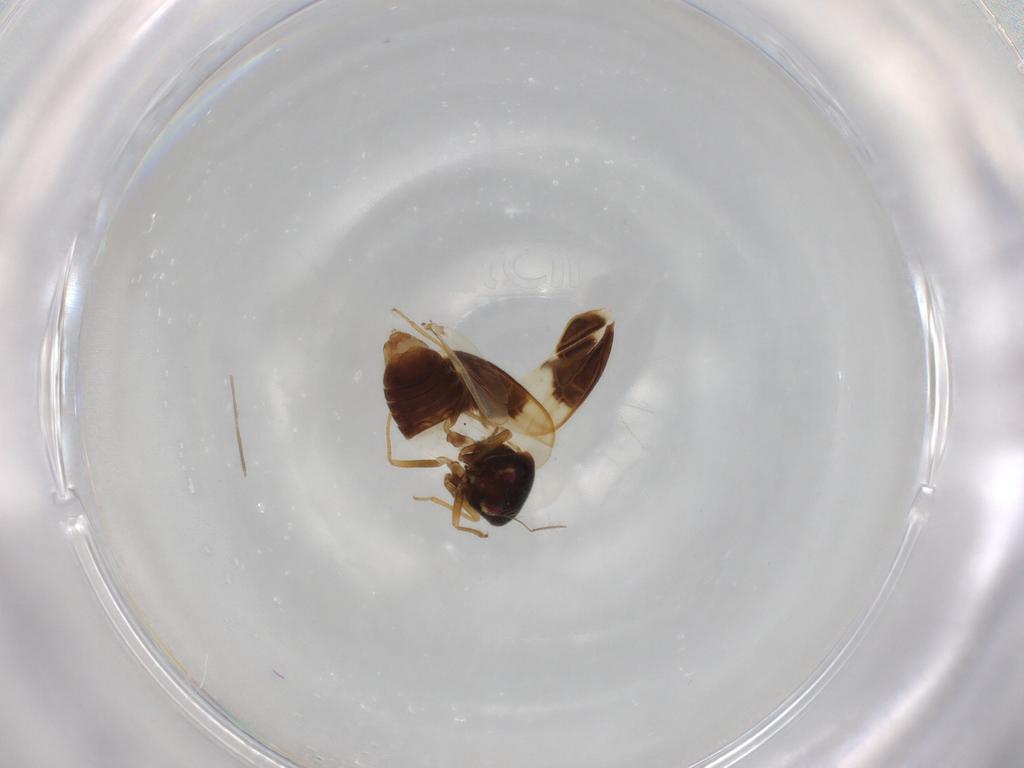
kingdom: Animalia
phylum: Arthropoda
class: Insecta
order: Hemiptera
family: Schizopteridae
